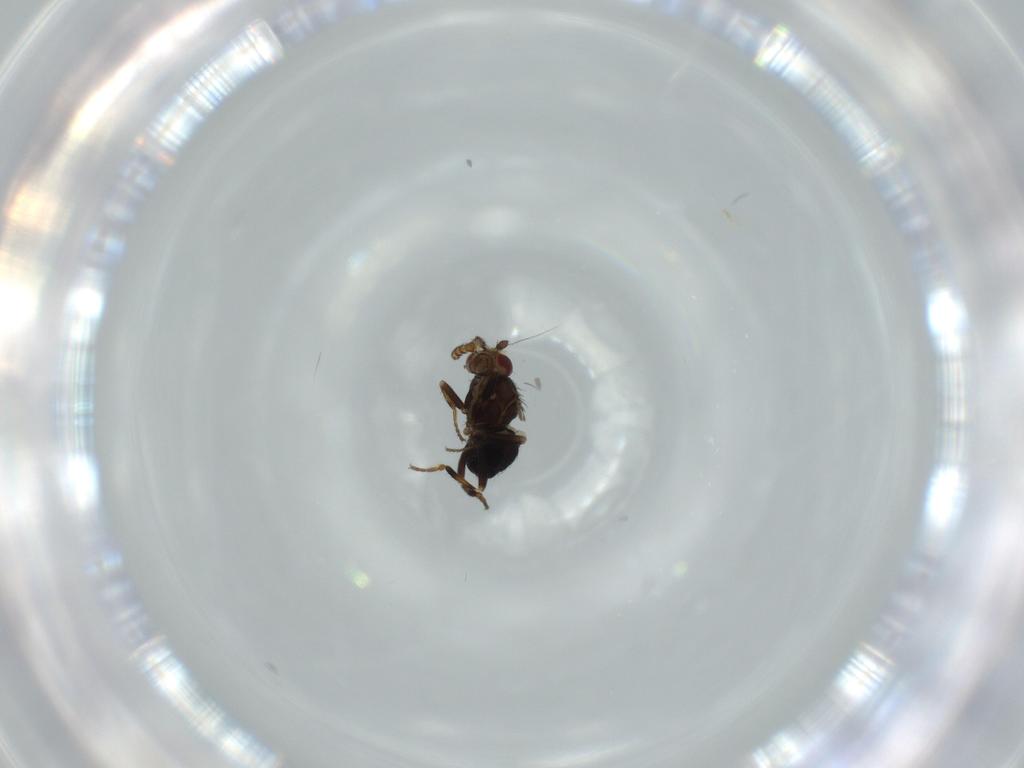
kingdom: Animalia
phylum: Arthropoda
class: Insecta
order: Diptera
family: Sphaeroceridae
